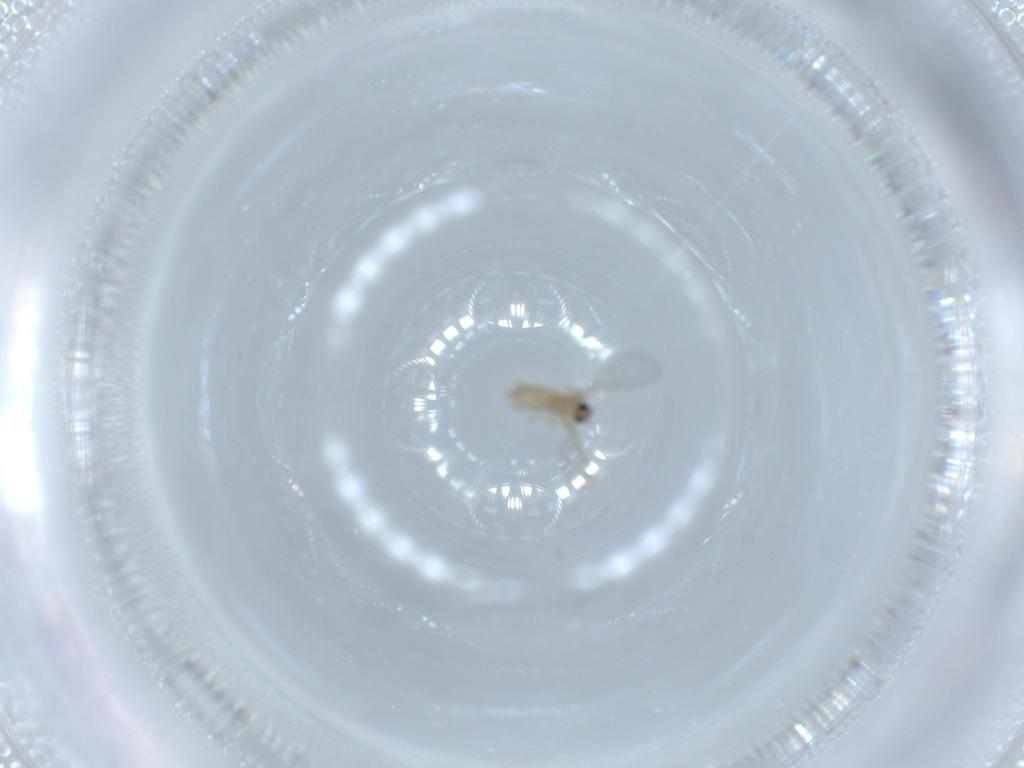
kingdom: Animalia
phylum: Arthropoda
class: Insecta
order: Diptera
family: Cecidomyiidae
